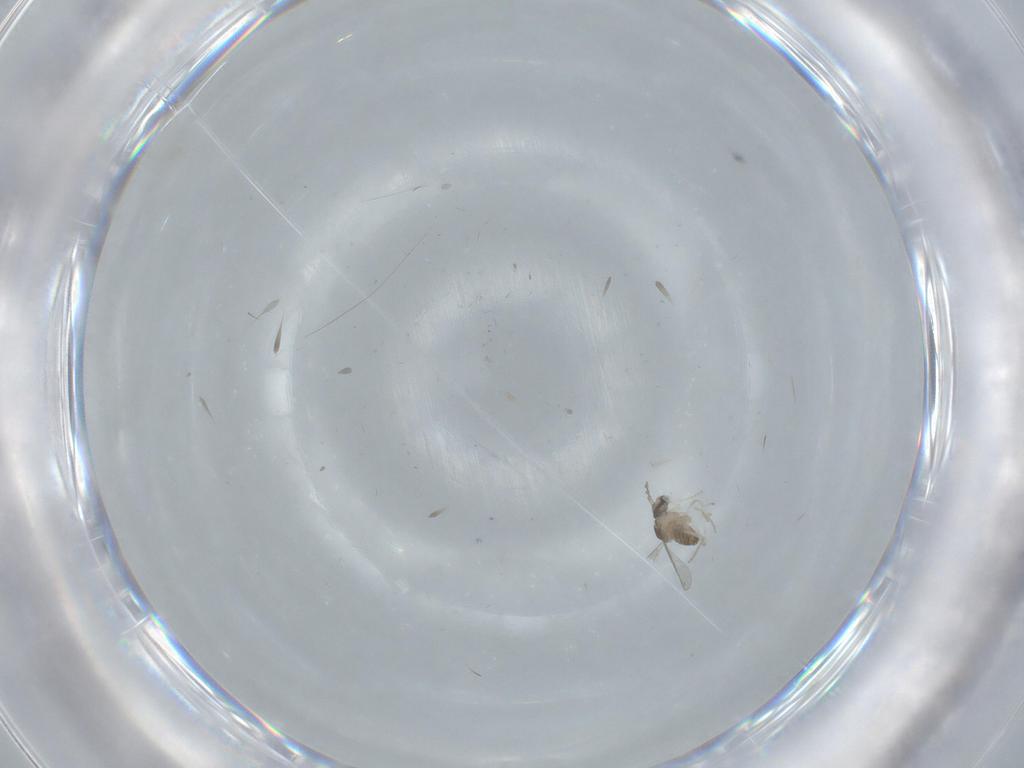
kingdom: Animalia
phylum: Arthropoda
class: Insecta
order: Diptera
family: Cecidomyiidae
